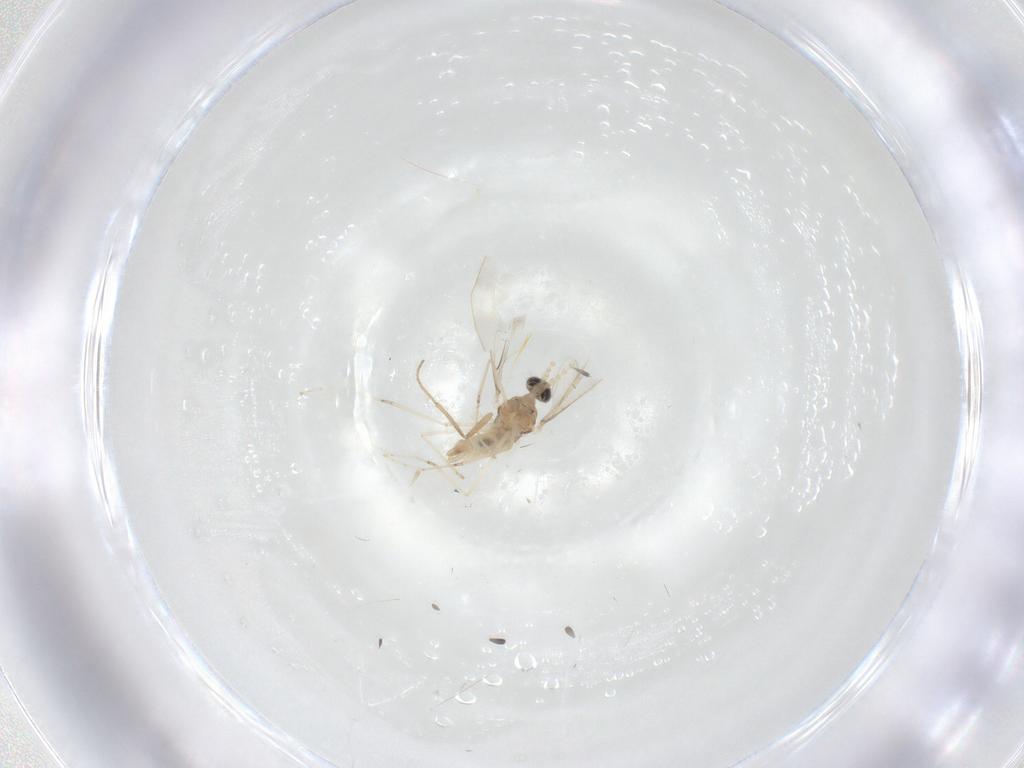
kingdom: Animalia
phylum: Arthropoda
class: Insecta
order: Diptera
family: Cecidomyiidae
